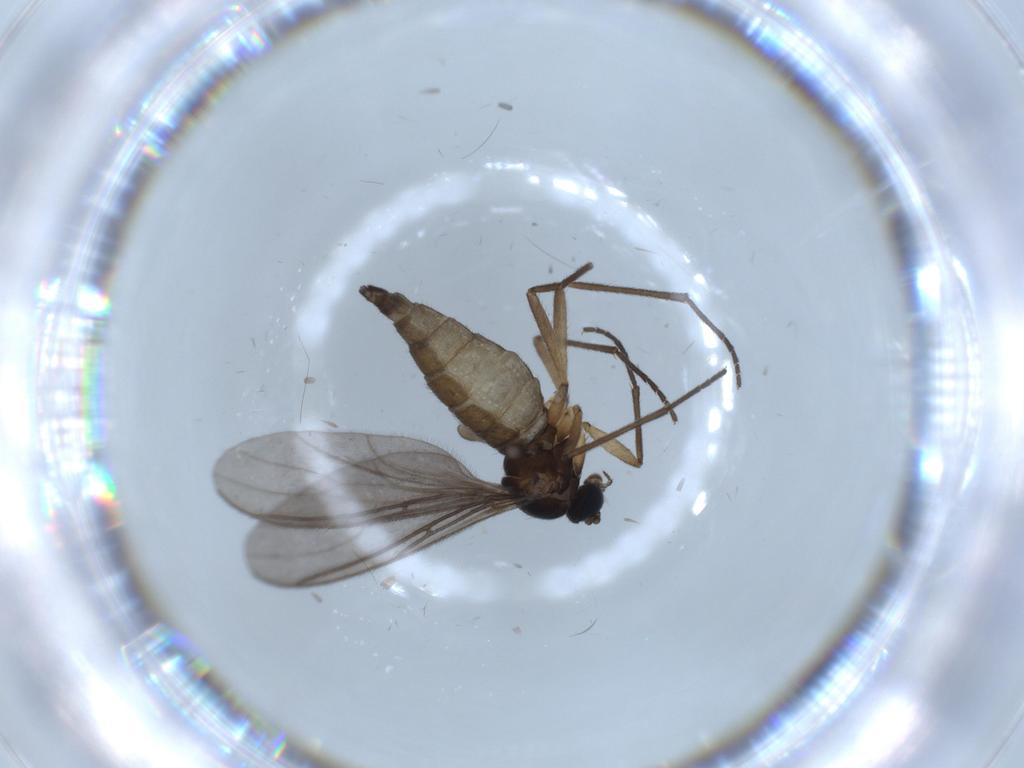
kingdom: Animalia
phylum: Arthropoda
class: Insecta
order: Diptera
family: Sciaridae
